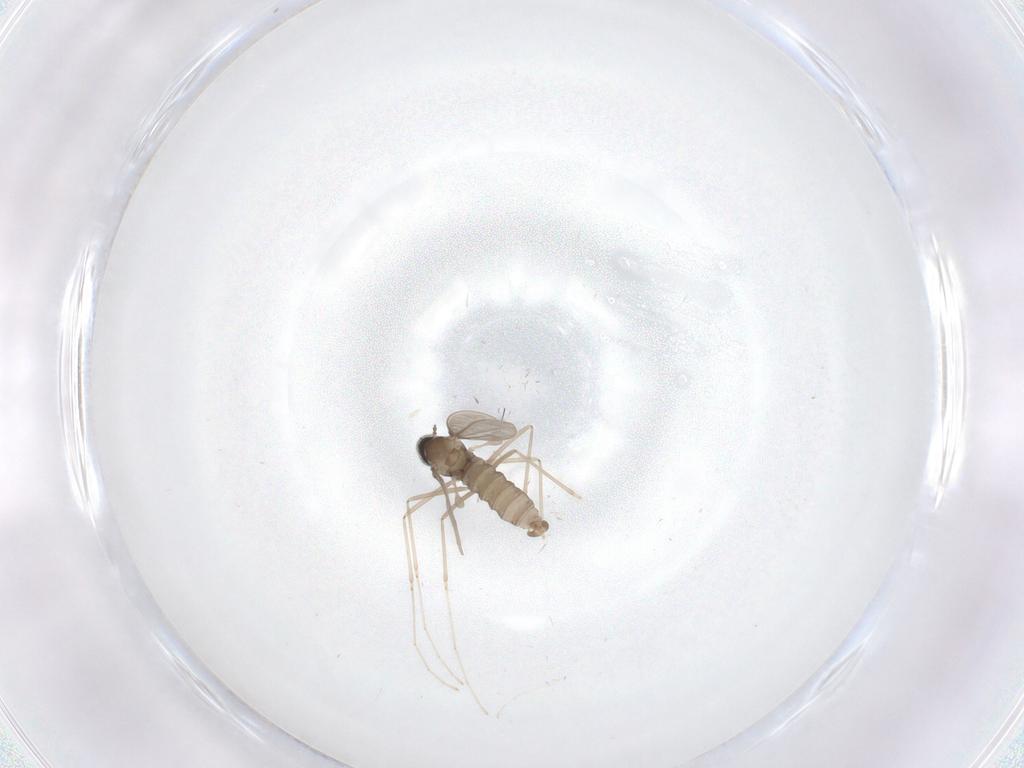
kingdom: Animalia
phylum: Arthropoda
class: Insecta
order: Diptera
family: Cecidomyiidae
